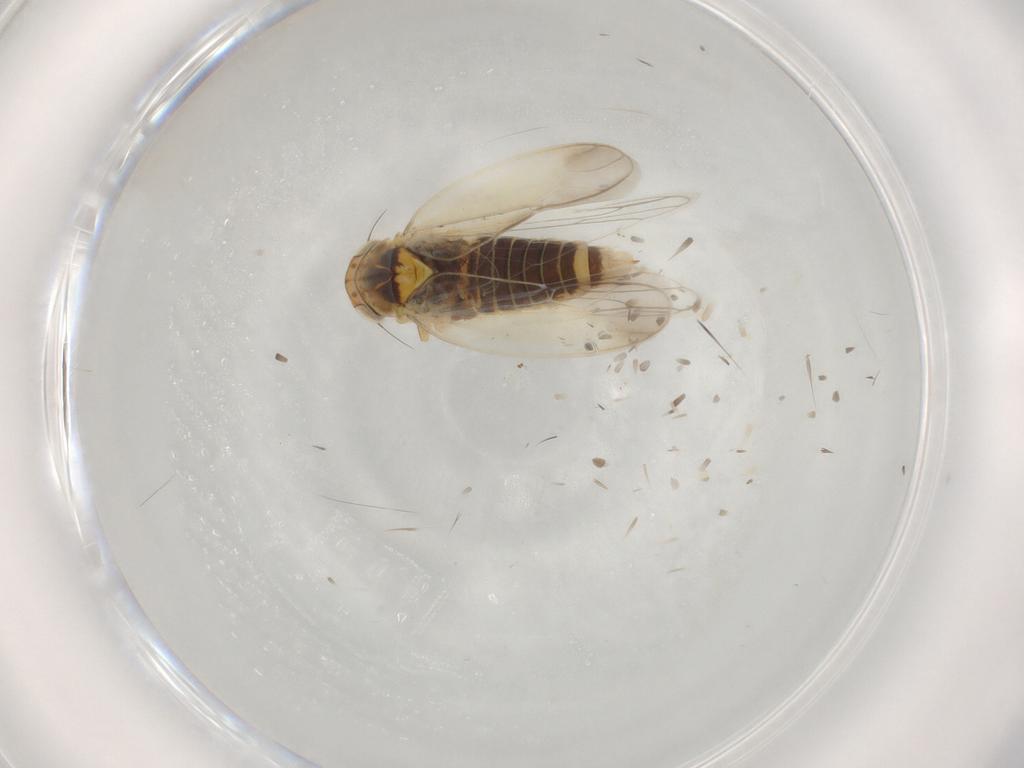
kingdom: Animalia
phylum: Arthropoda
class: Insecta
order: Hemiptera
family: Cicadellidae
